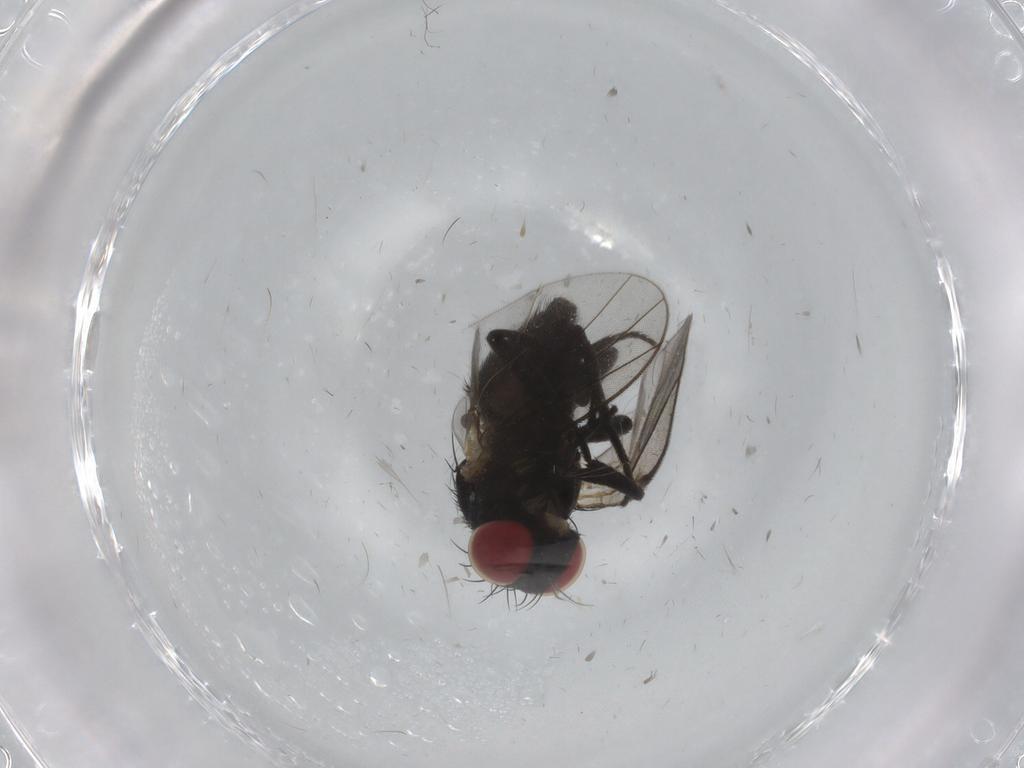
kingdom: Animalia
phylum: Arthropoda
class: Insecta
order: Diptera
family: Agromyzidae
